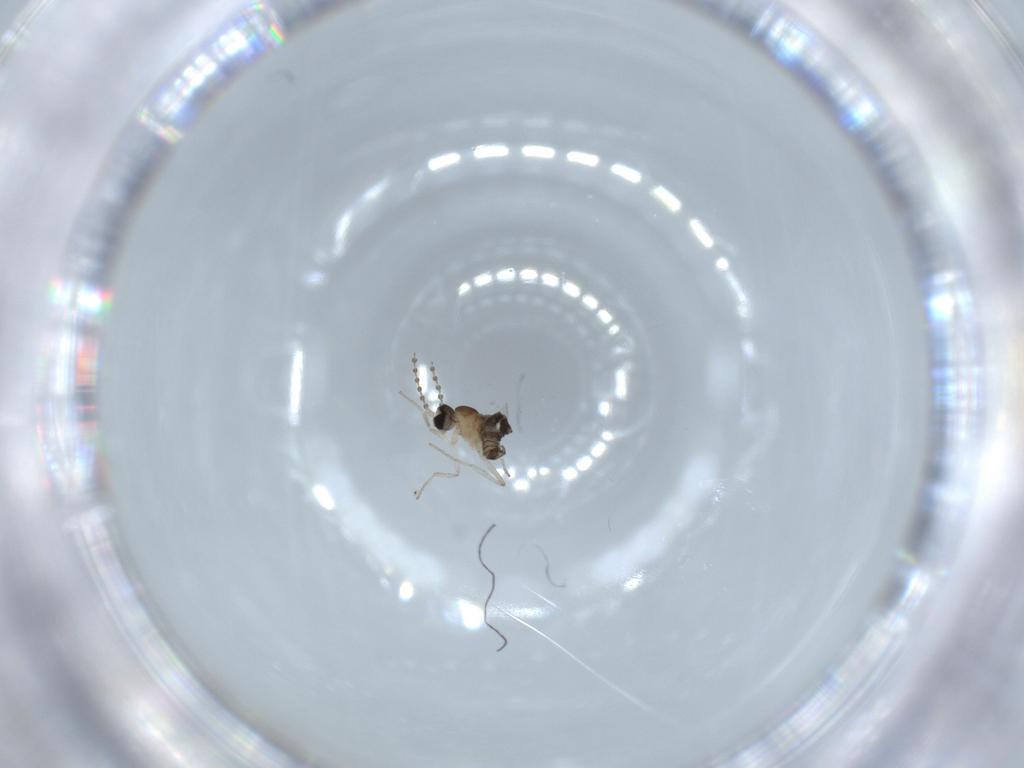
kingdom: Animalia
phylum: Arthropoda
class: Insecta
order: Diptera
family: Cecidomyiidae
